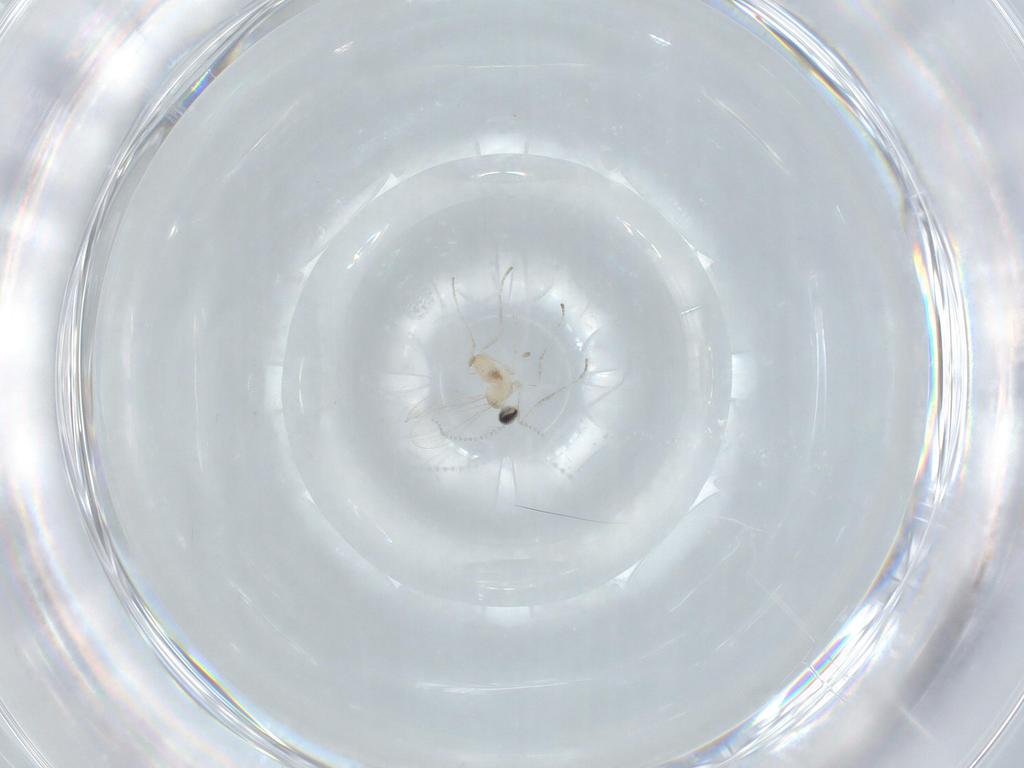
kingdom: Animalia
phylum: Arthropoda
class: Insecta
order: Diptera
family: Cecidomyiidae
